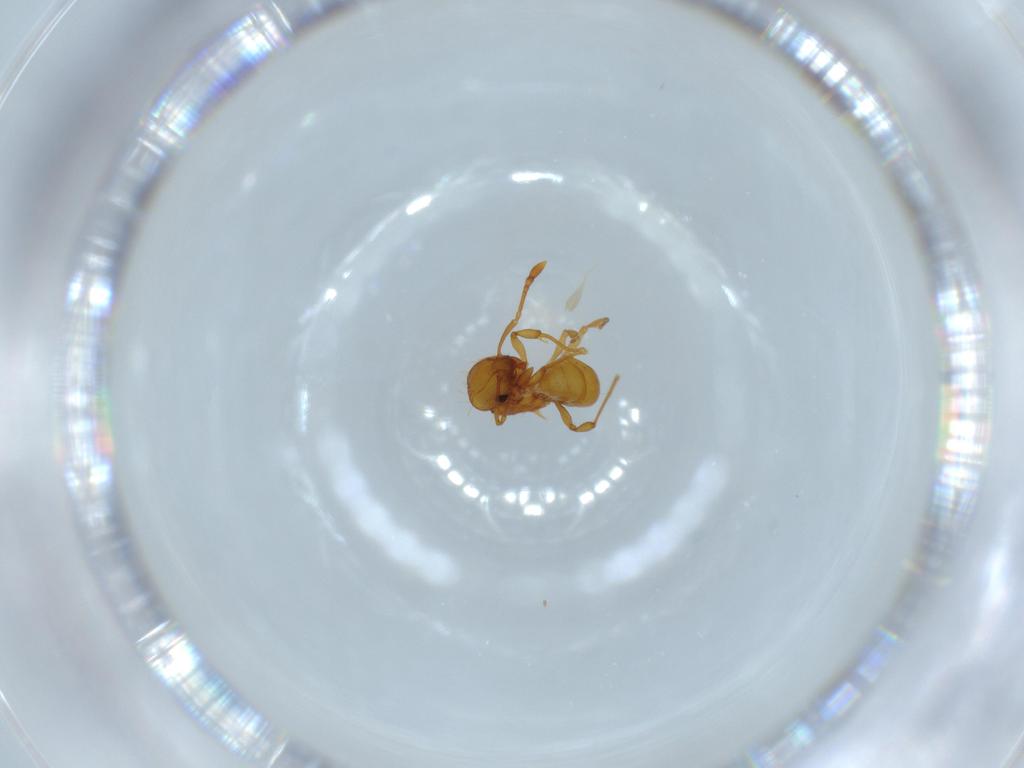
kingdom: Animalia
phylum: Arthropoda
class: Insecta
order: Hymenoptera
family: Formicidae
